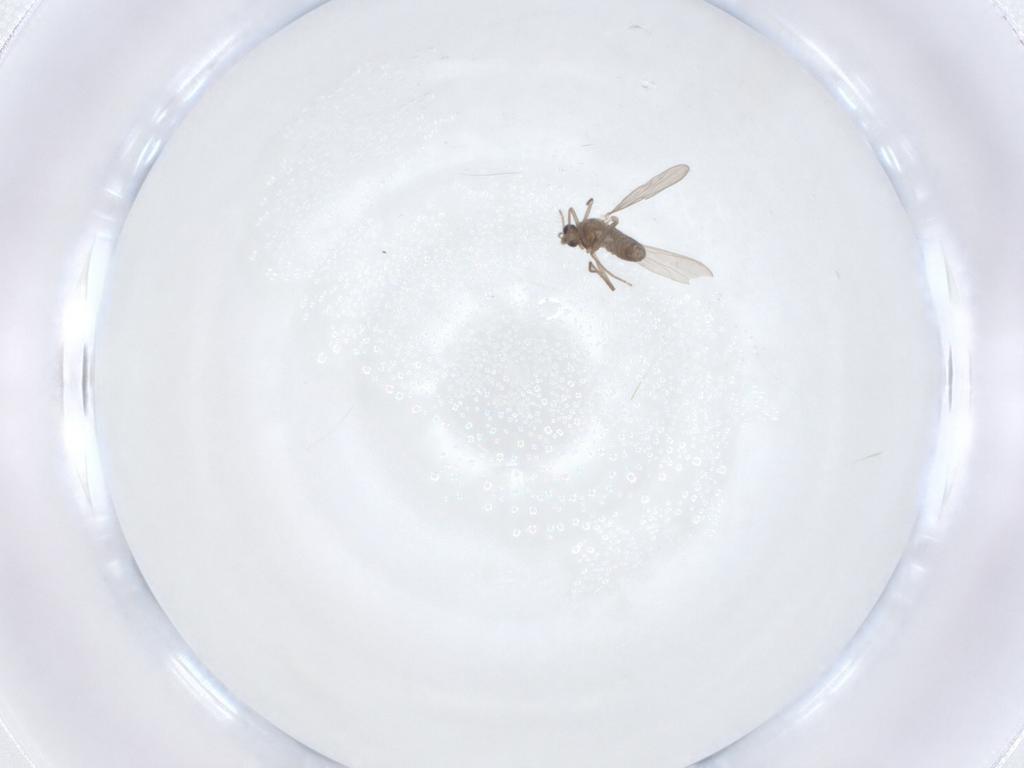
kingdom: Animalia
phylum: Arthropoda
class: Insecta
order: Diptera
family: Chironomidae
